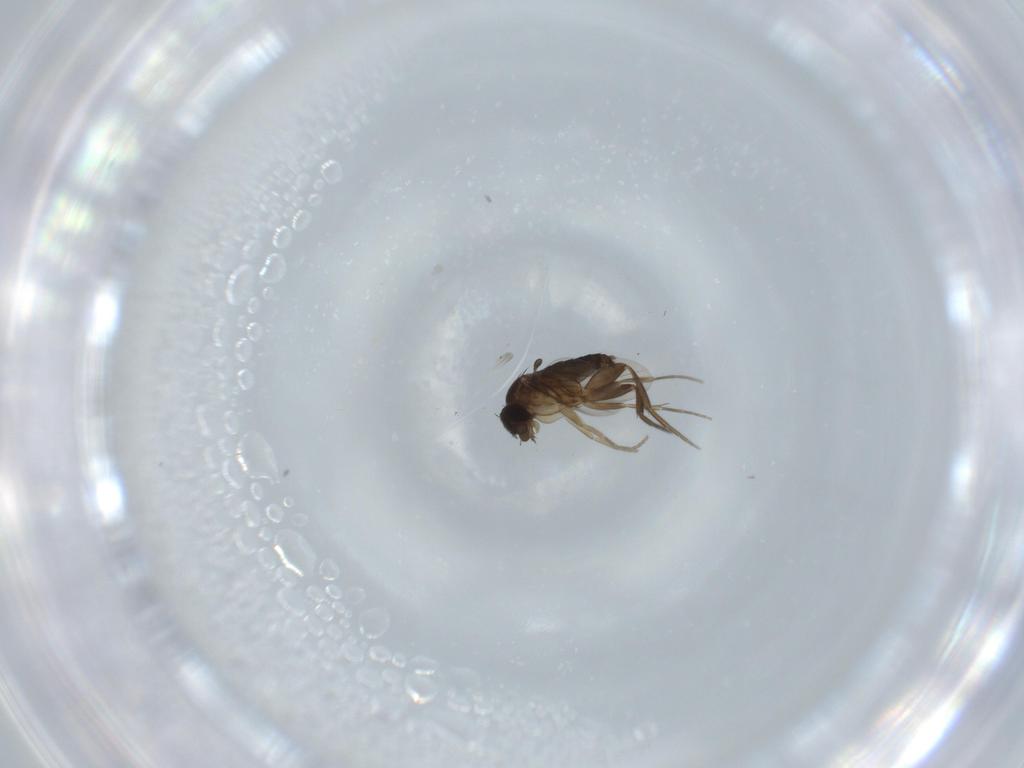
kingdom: Animalia
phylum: Arthropoda
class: Insecta
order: Diptera
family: Phoridae
